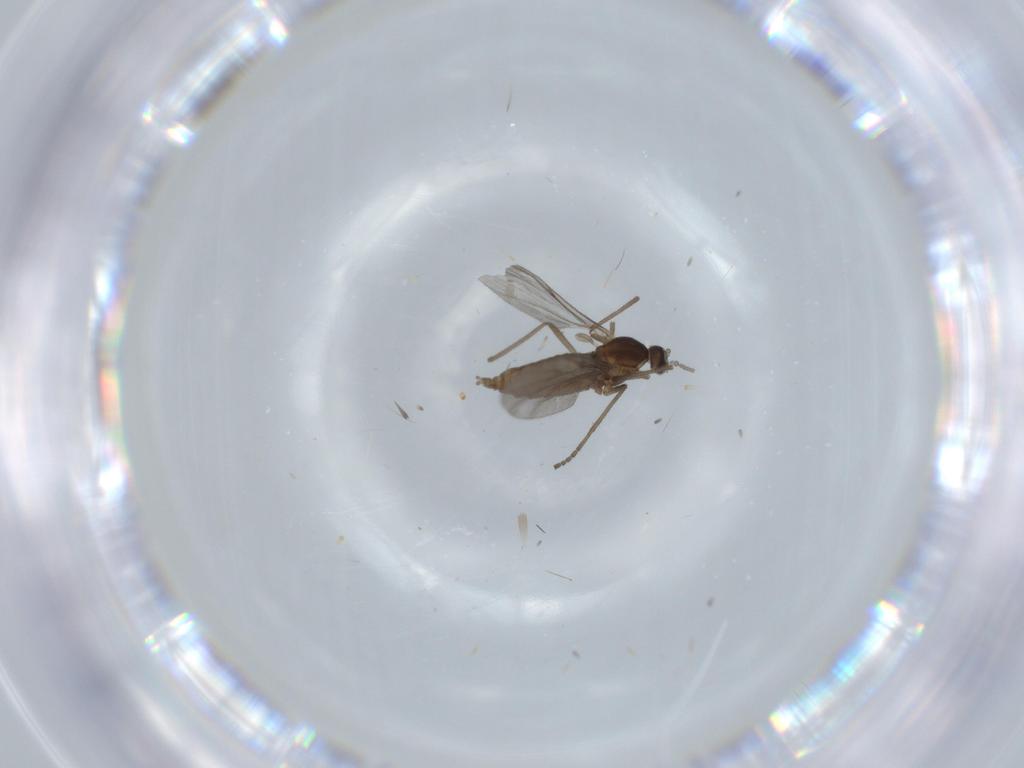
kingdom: Animalia
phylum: Arthropoda
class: Insecta
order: Diptera
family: Cecidomyiidae
